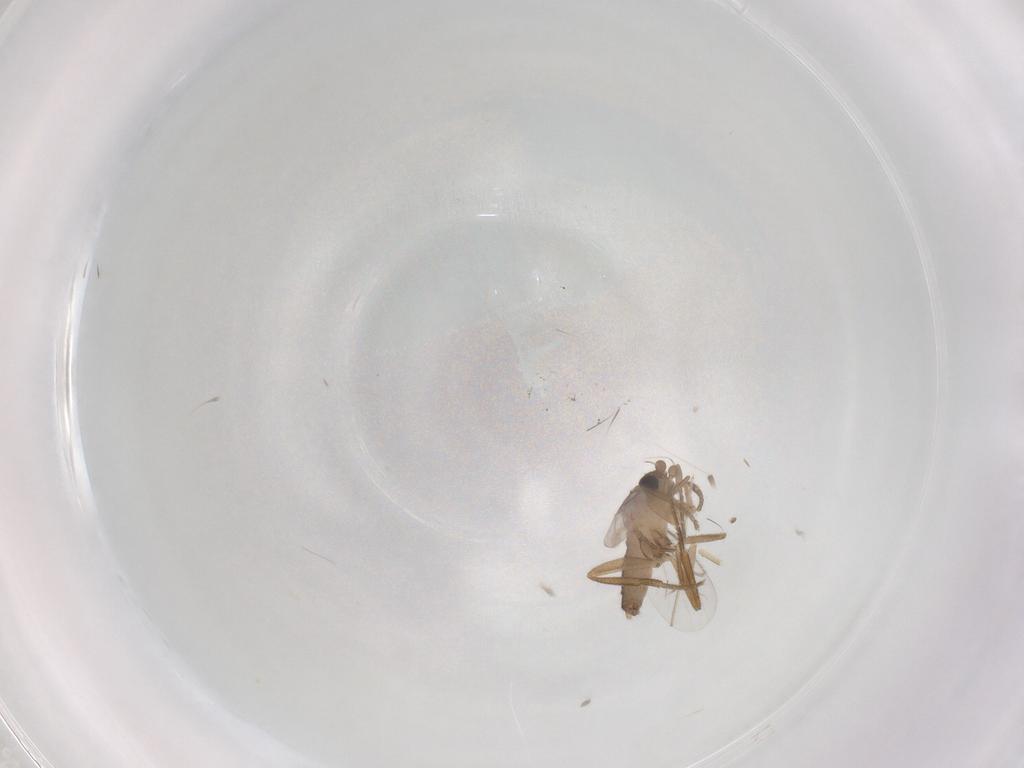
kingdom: Animalia
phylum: Arthropoda
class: Insecta
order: Diptera
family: Phoridae
